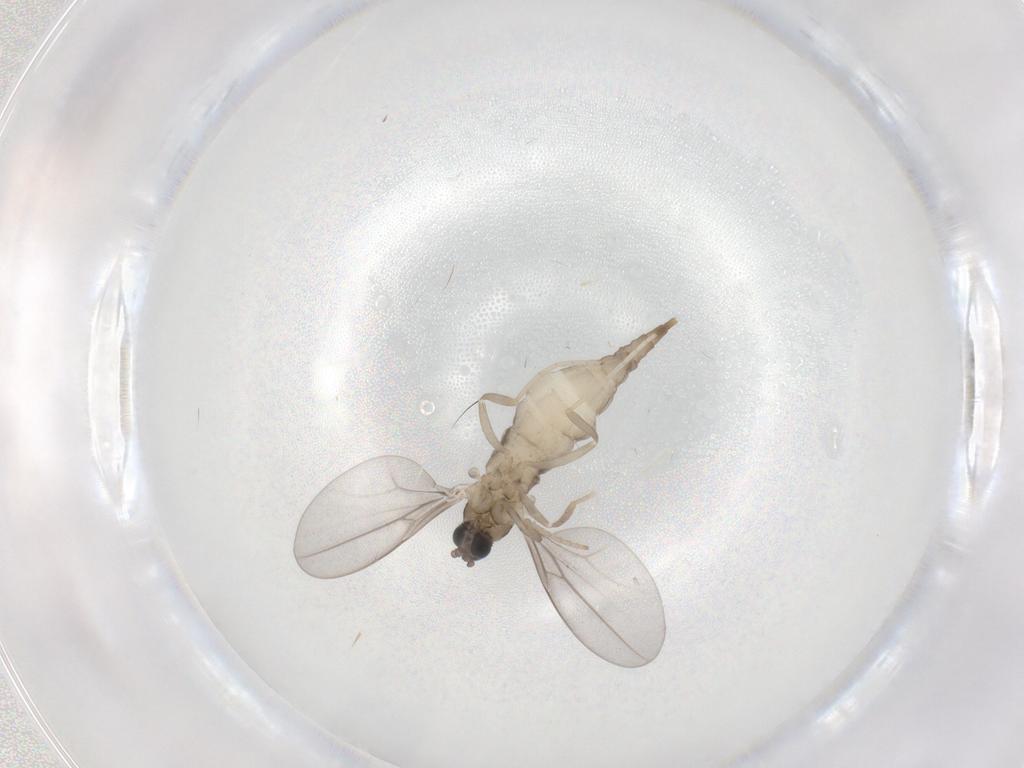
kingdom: Animalia
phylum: Arthropoda
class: Insecta
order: Diptera
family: Cecidomyiidae
